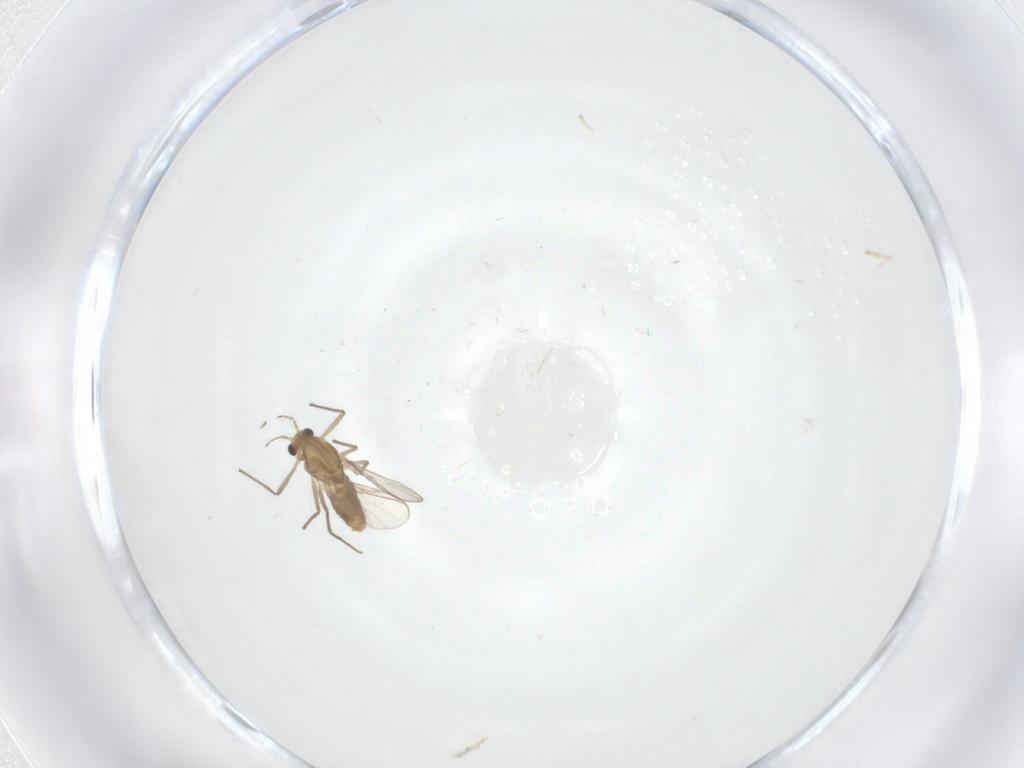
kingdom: Animalia
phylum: Arthropoda
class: Insecta
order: Diptera
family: Chironomidae
